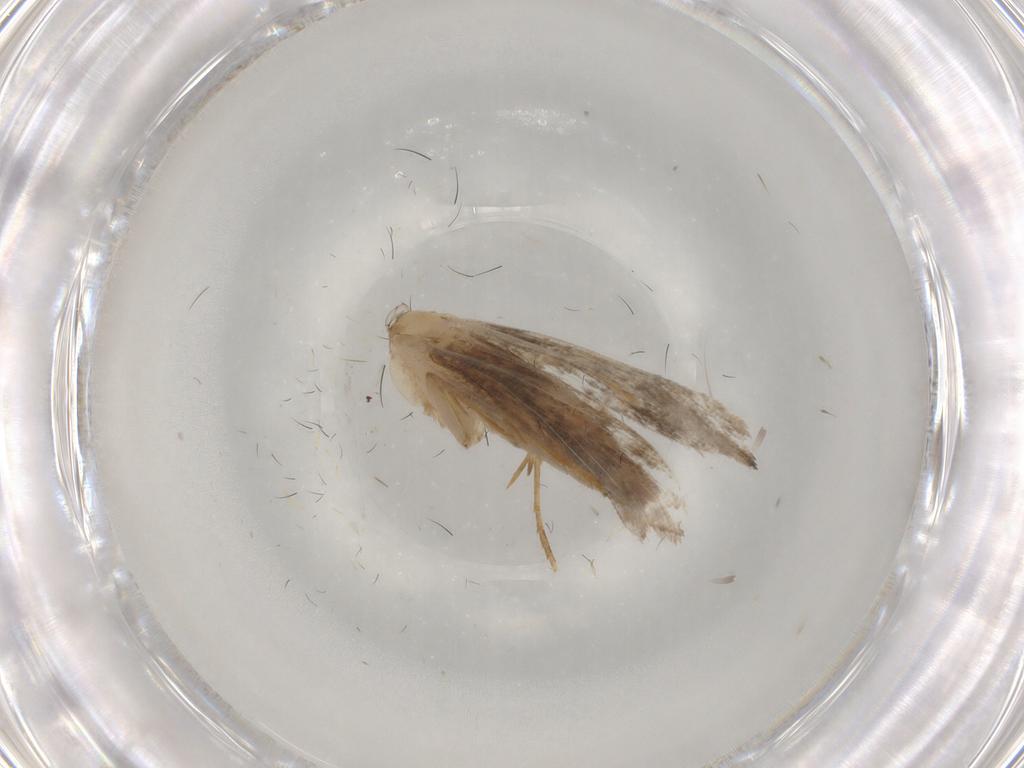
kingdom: Animalia
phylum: Arthropoda
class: Insecta
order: Lepidoptera
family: Tineidae
